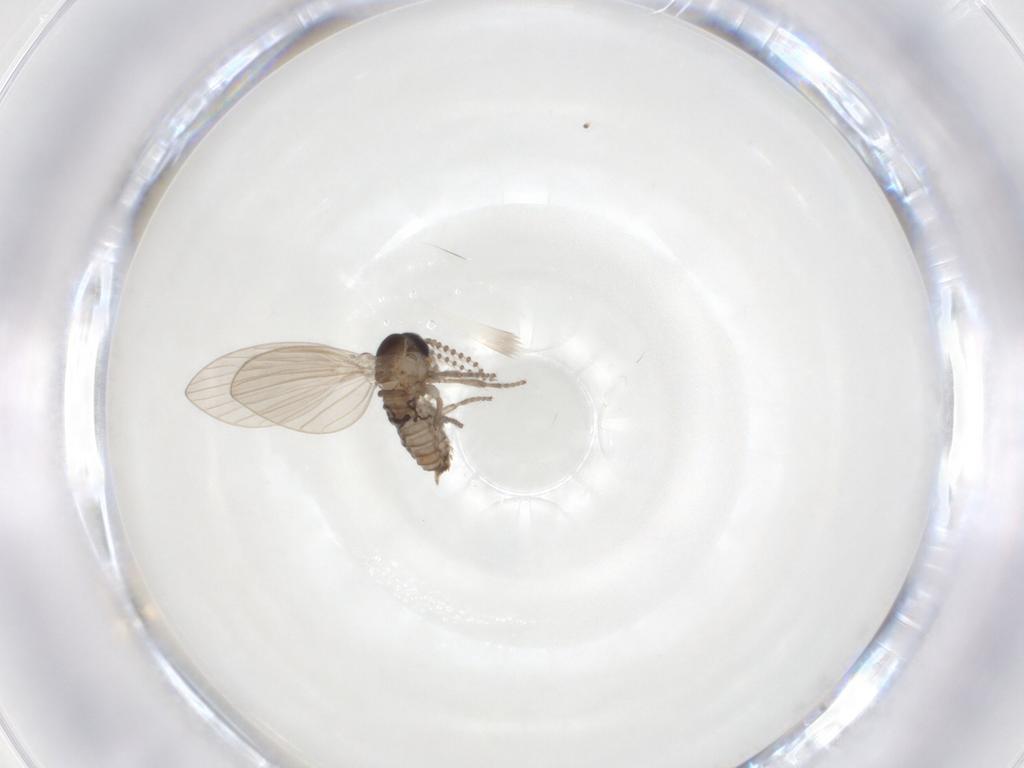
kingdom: Animalia
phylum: Arthropoda
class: Insecta
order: Diptera
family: Psychodidae
